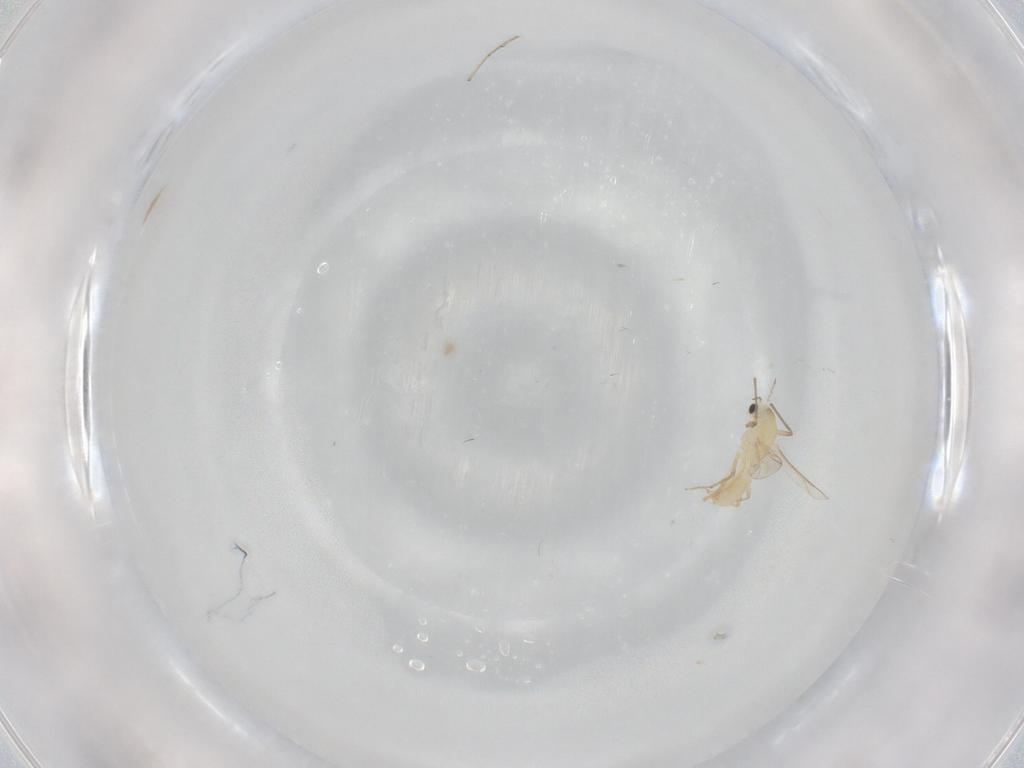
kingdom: Animalia
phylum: Arthropoda
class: Insecta
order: Diptera
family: Chironomidae
